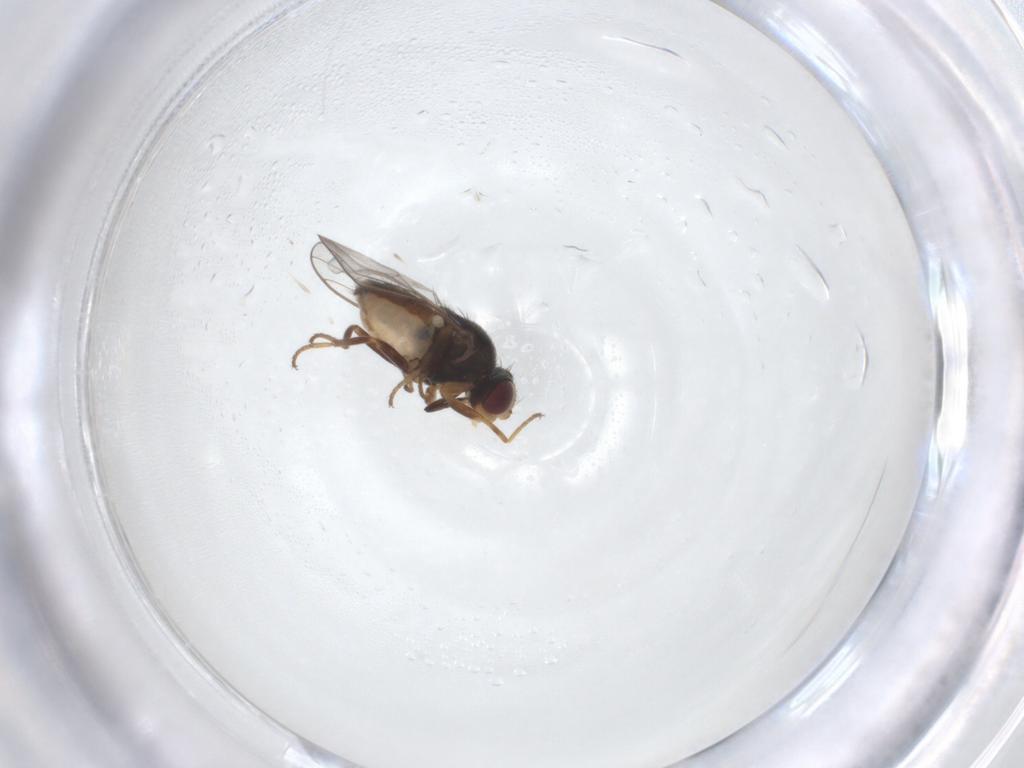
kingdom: Animalia
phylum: Arthropoda
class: Insecta
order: Diptera
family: Chloropidae
